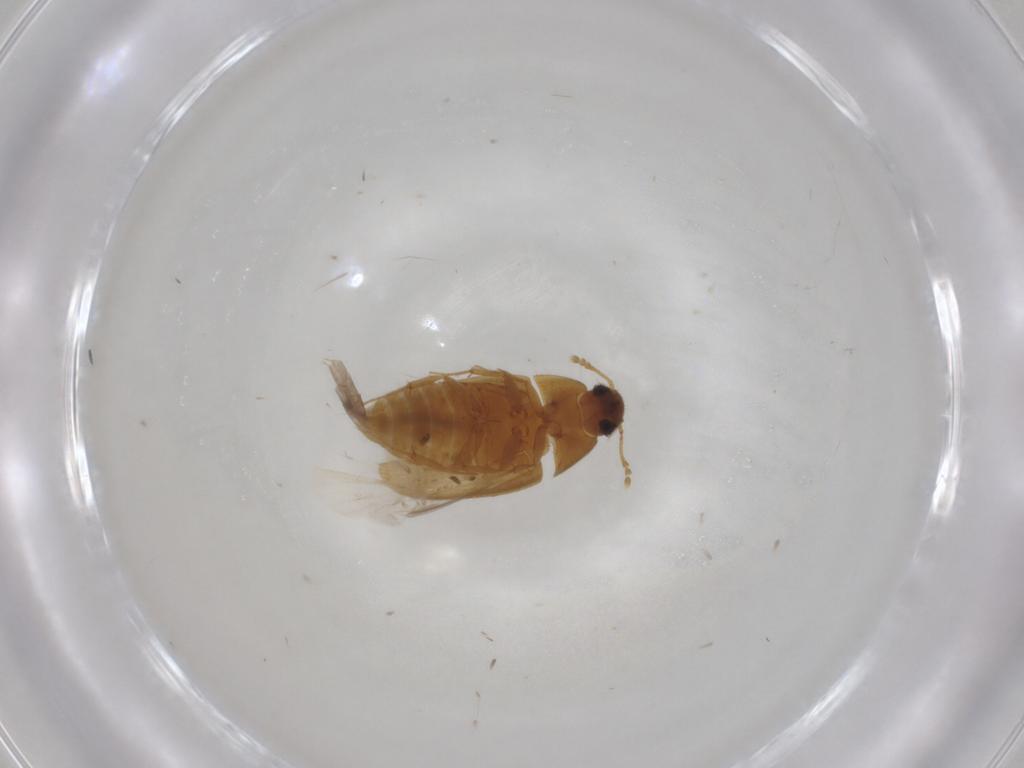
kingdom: Animalia
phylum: Arthropoda
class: Insecta
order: Coleoptera
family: Mycetophagidae
